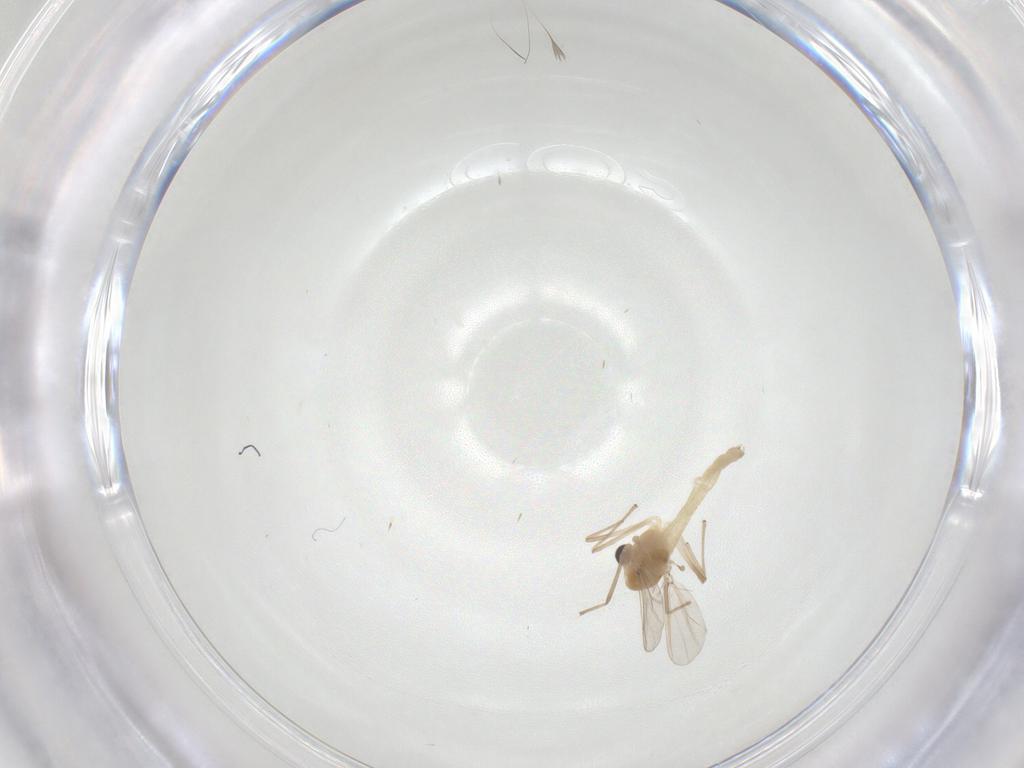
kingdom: Animalia
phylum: Arthropoda
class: Insecta
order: Diptera
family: Chironomidae
